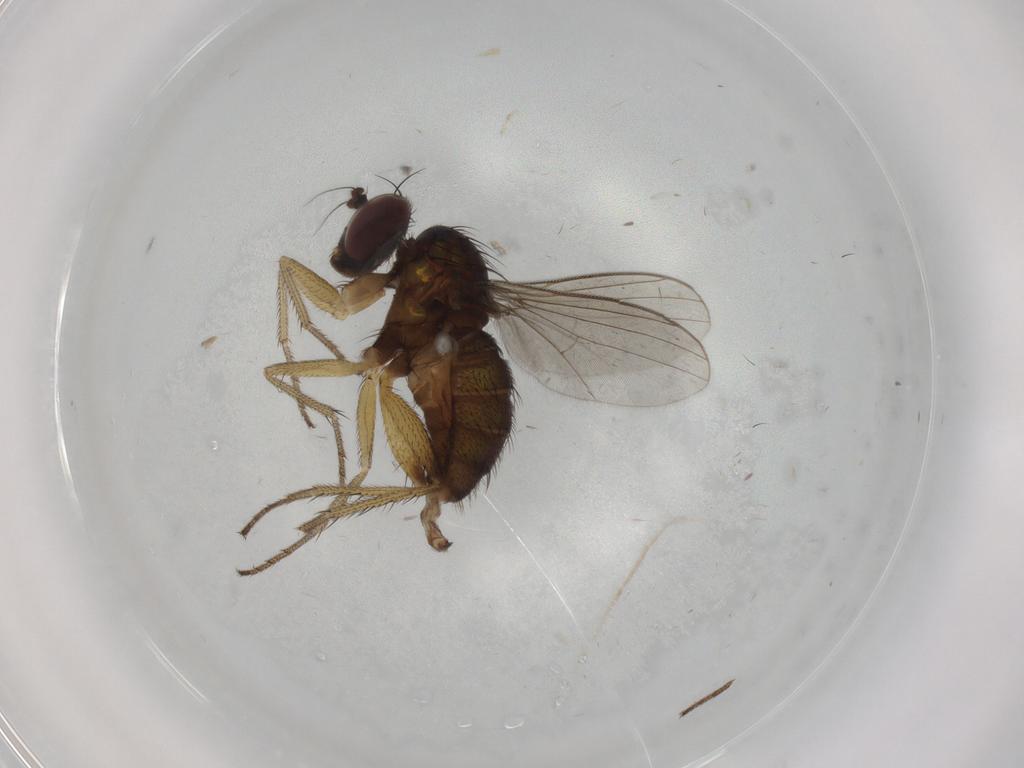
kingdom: Animalia
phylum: Arthropoda
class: Insecta
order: Diptera
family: Dolichopodidae
